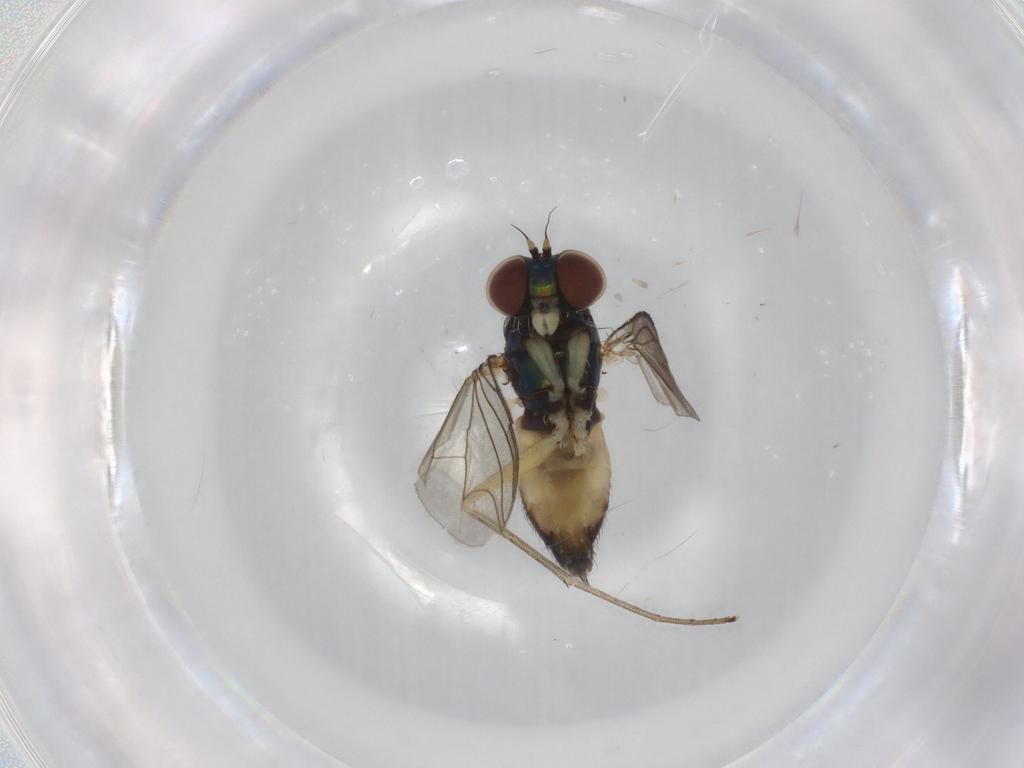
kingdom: Animalia
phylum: Arthropoda
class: Insecta
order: Diptera
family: Dolichopodidae
